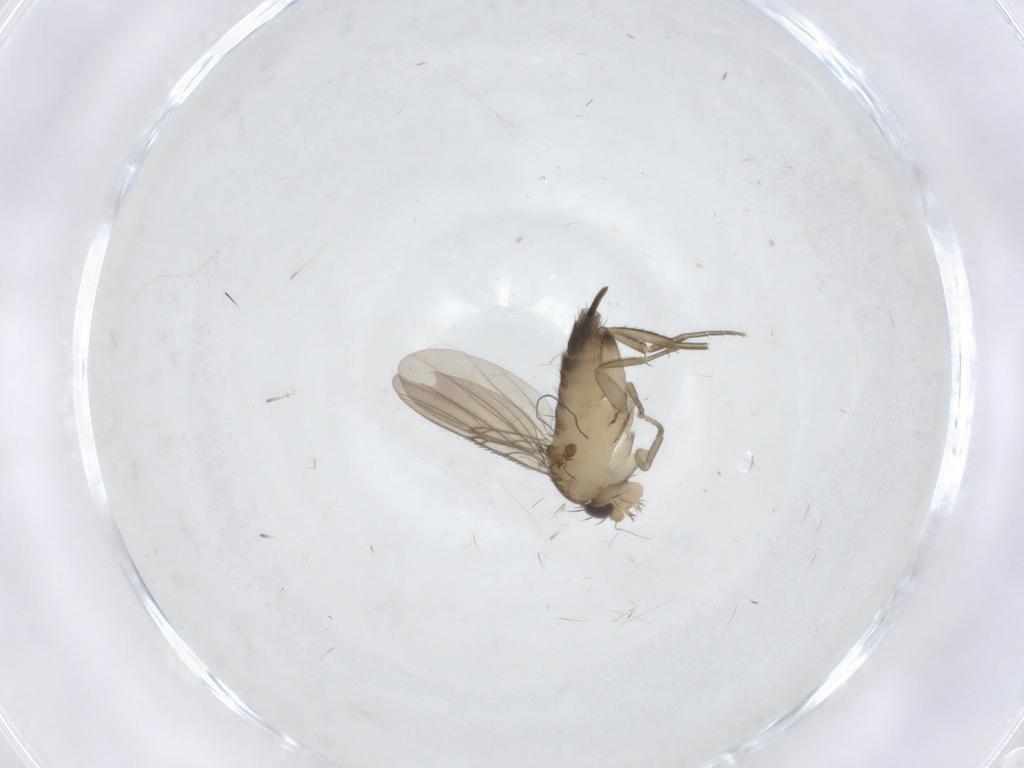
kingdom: Animalia
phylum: Arthropoda
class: Insecta
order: Diptera
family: Phoridae
